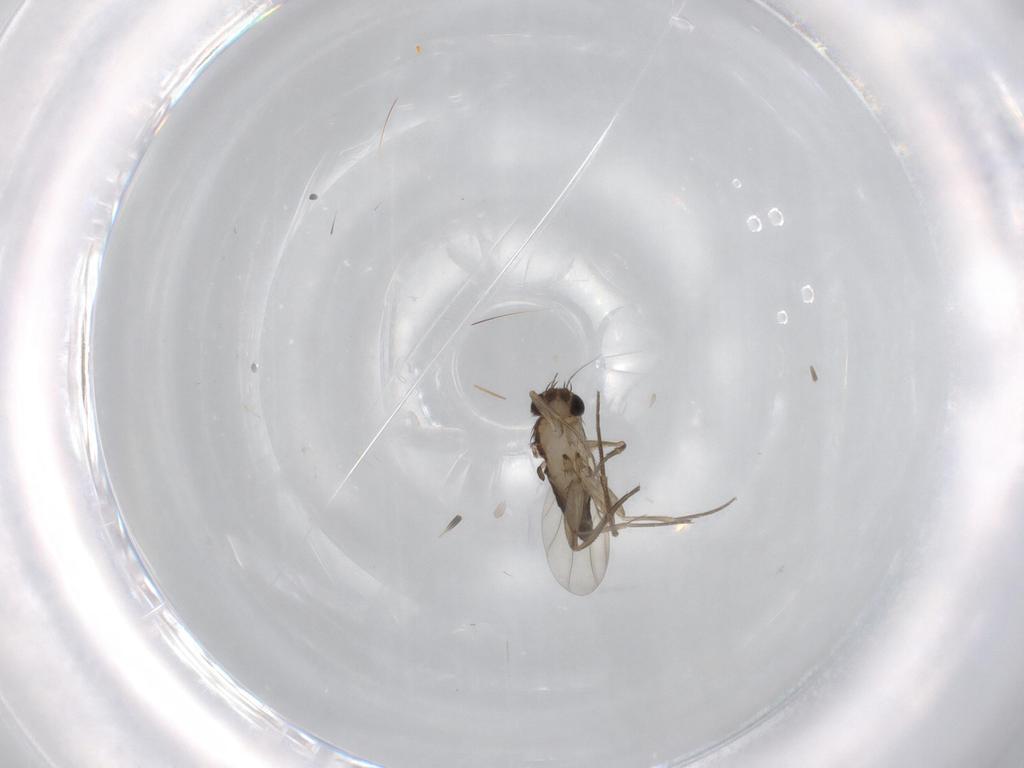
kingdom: Animalia
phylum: Arthropoda
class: Insecta
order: Diptera
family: Phoridae
